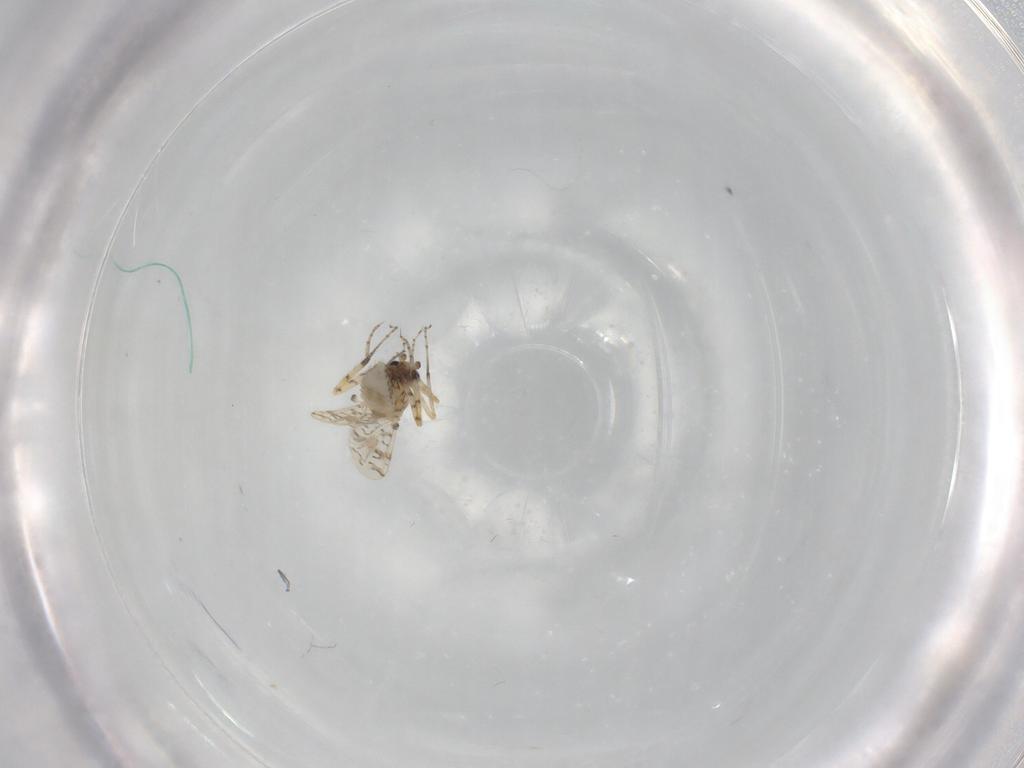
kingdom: Animalia
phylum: Arthropoda
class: Insecta
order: Diptera
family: Ceratopogonidae
